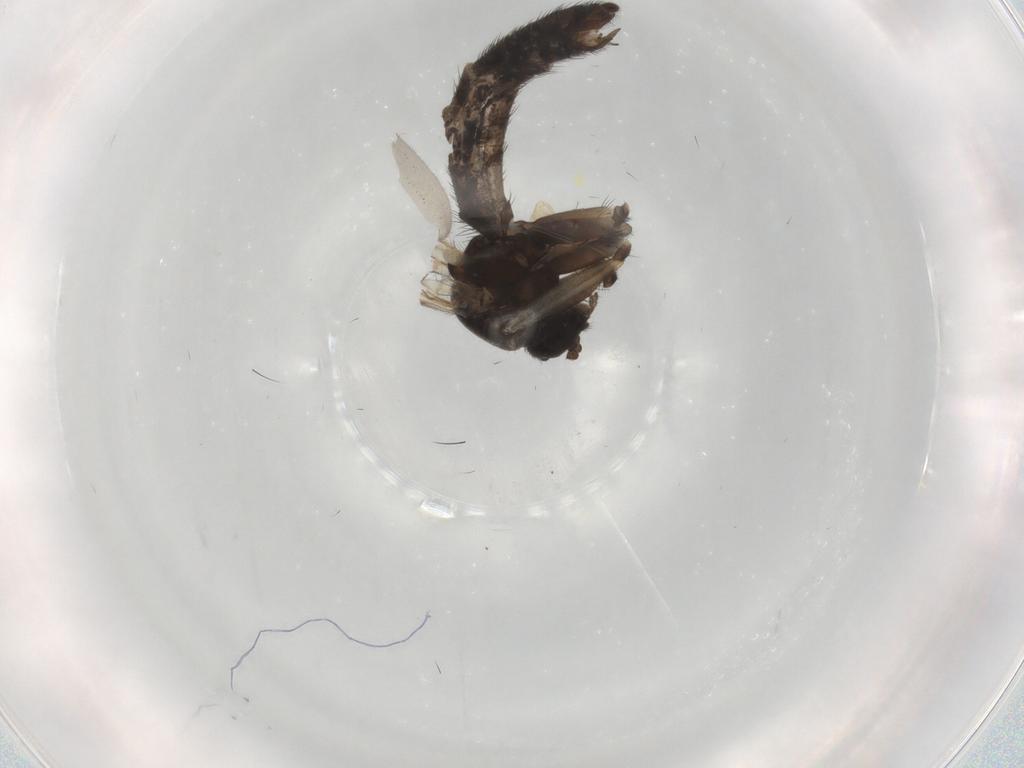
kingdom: Animalia
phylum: Arthropoda
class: Insecta
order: Diptera
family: Keroplatidae
